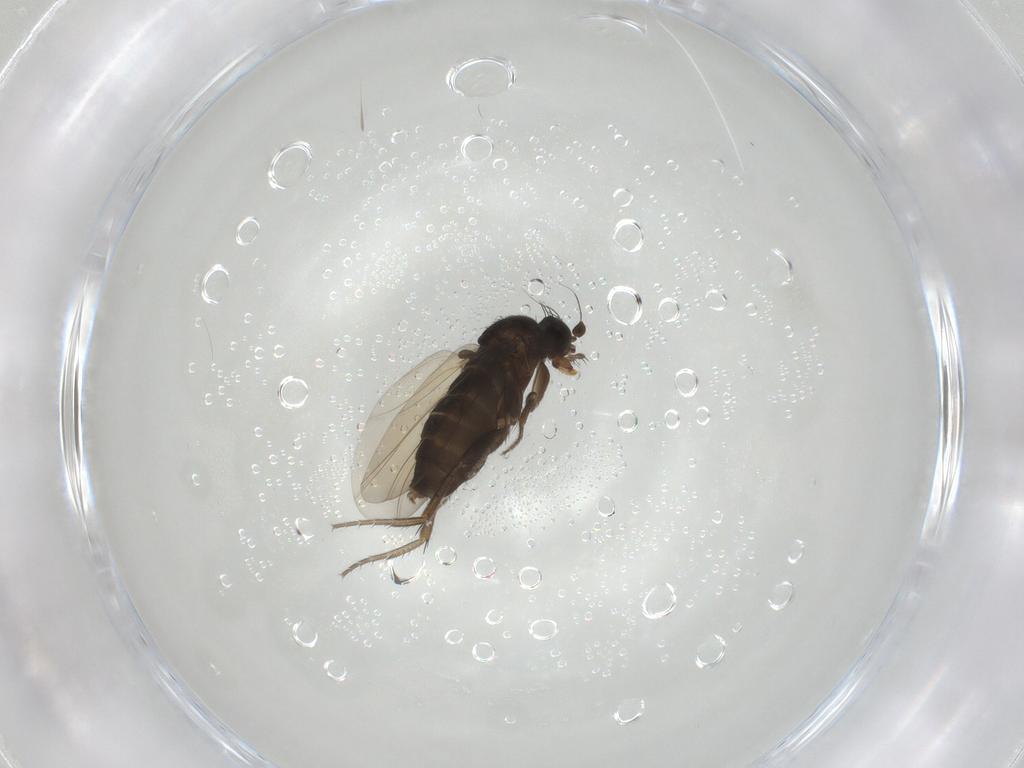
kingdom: Animalia
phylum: Arthropoda
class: Insecta
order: Diptera
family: Phoridae
